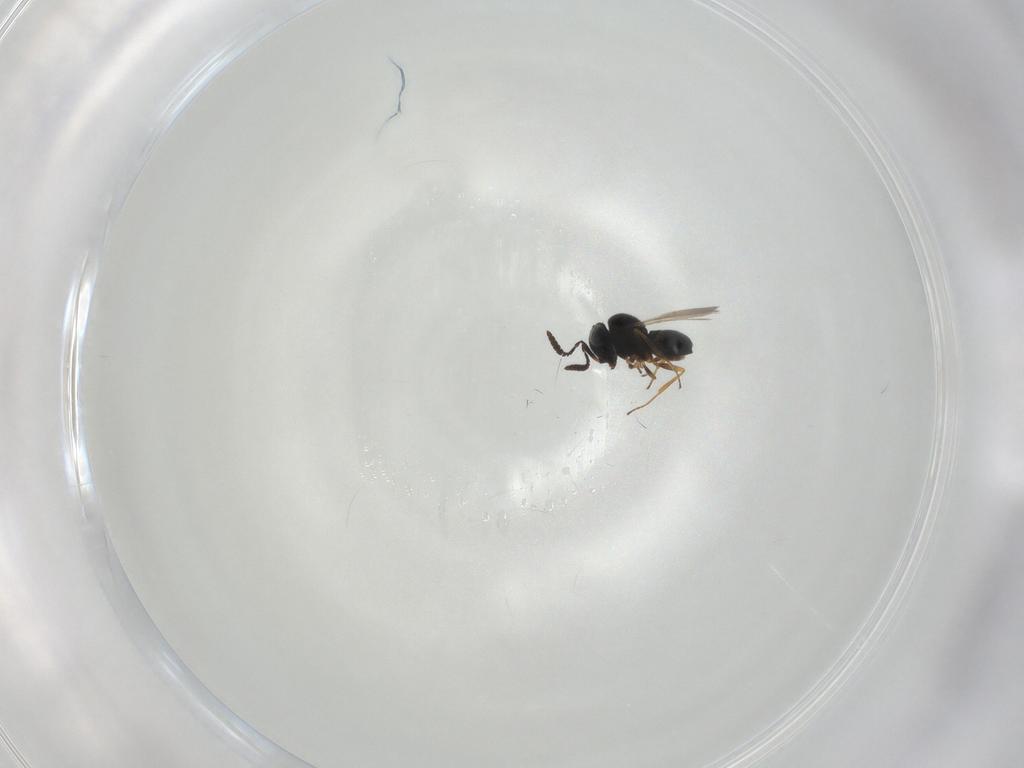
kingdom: Animalia
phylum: Arthropoda
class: Insecta
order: Hymenoptera
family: Scelionidae
